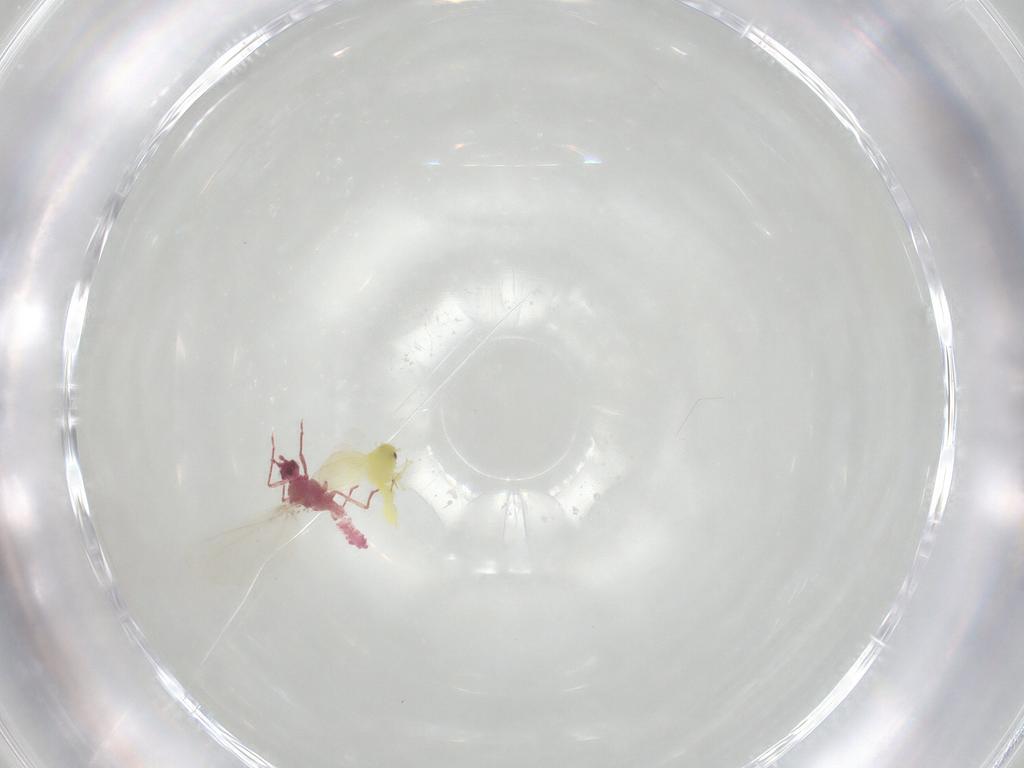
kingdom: Animalia
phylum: Arthropoda
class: Insecta
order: Hemiptera
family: Aleyrodidae
